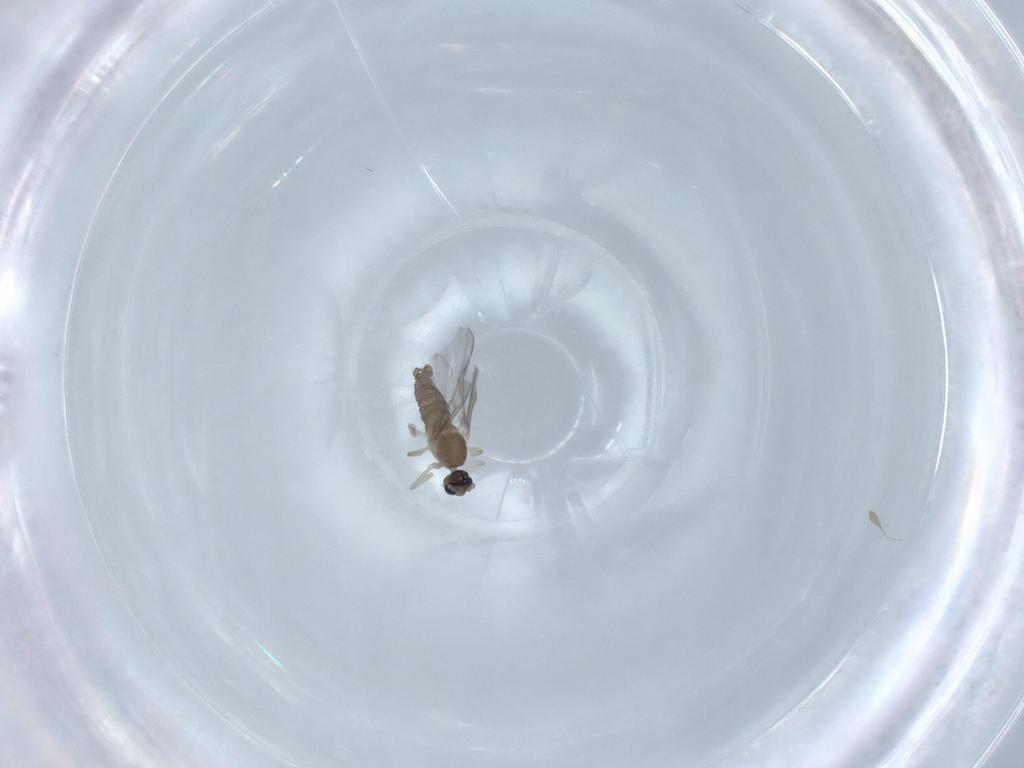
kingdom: Animalia
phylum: Arthropoda
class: Insecta
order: Diptera
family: Cecidomyiidae
